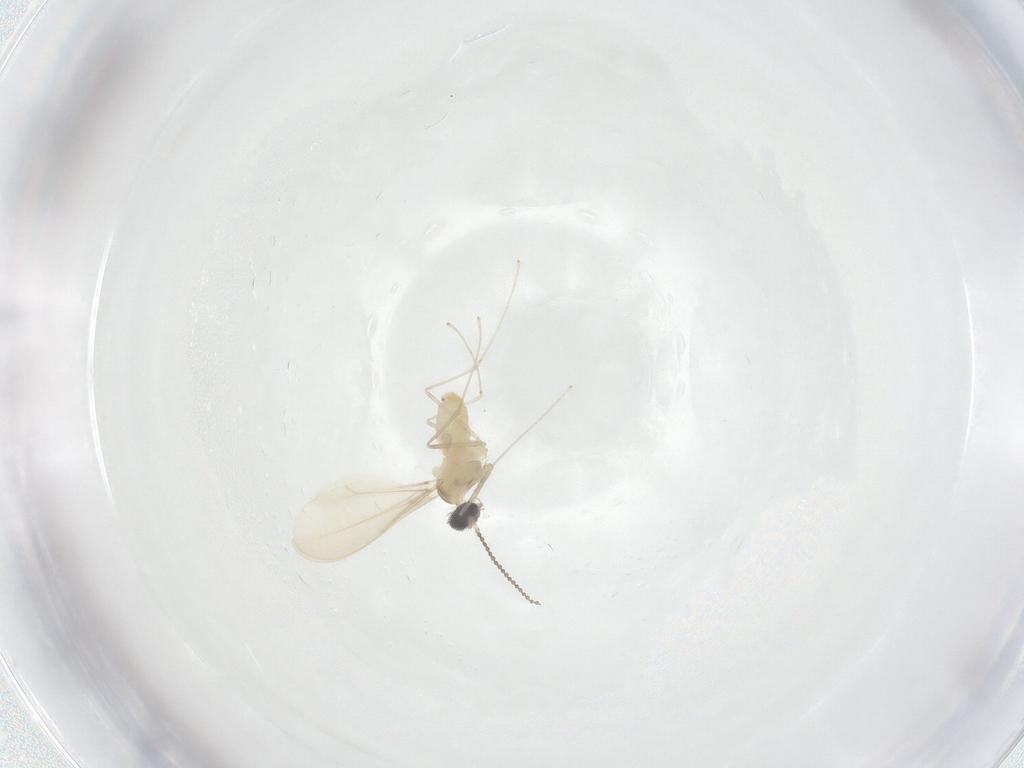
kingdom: Animalia
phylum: Arthropoda
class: Insecta
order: Diptera
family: Cecidomyiidae
